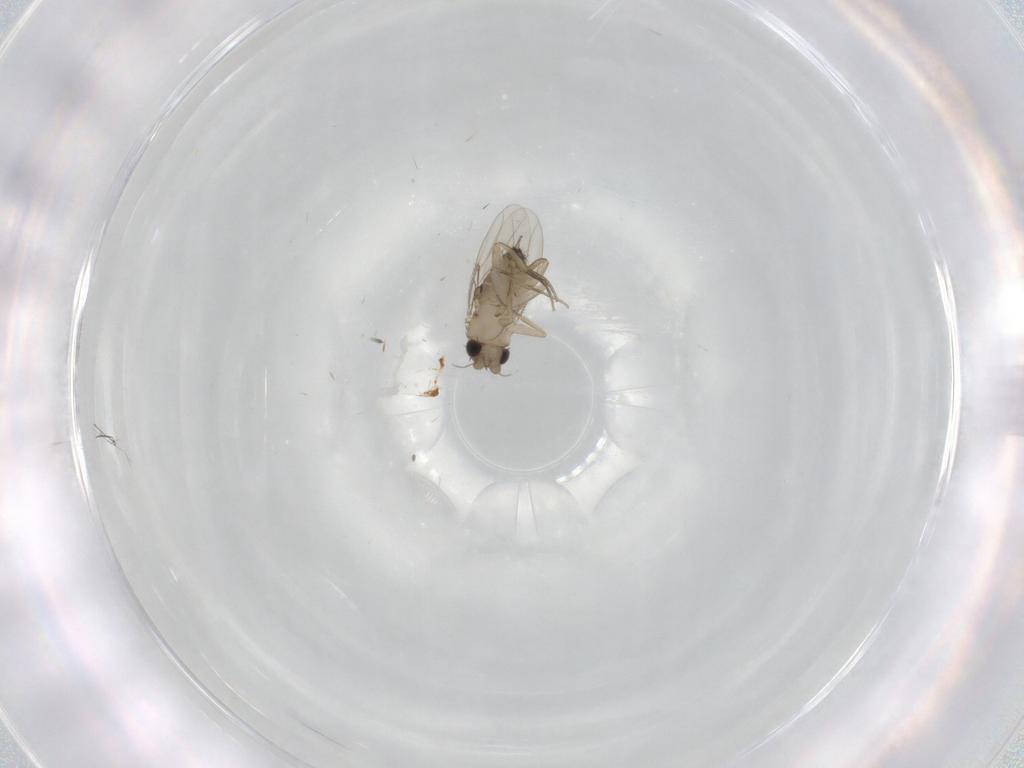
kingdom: Animalia
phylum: Arthropoda
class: Insecta
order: Diptera
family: Phoridae
